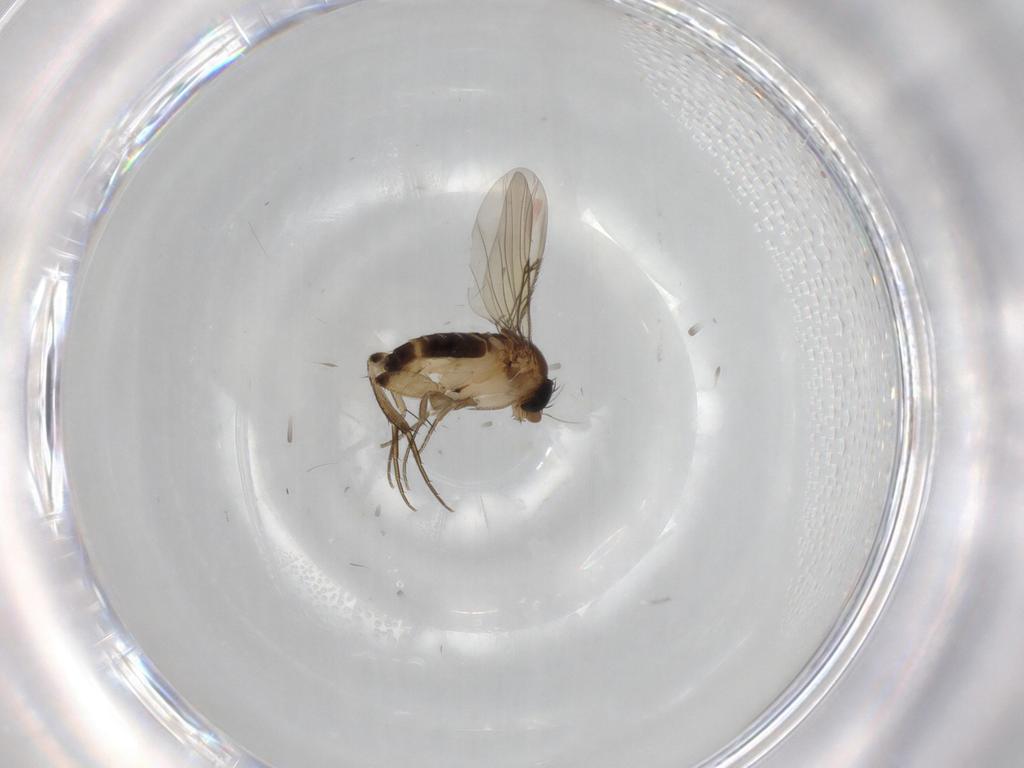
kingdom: Animalia
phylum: Arthropoda
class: Insecta
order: Diptera
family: Phoridae
